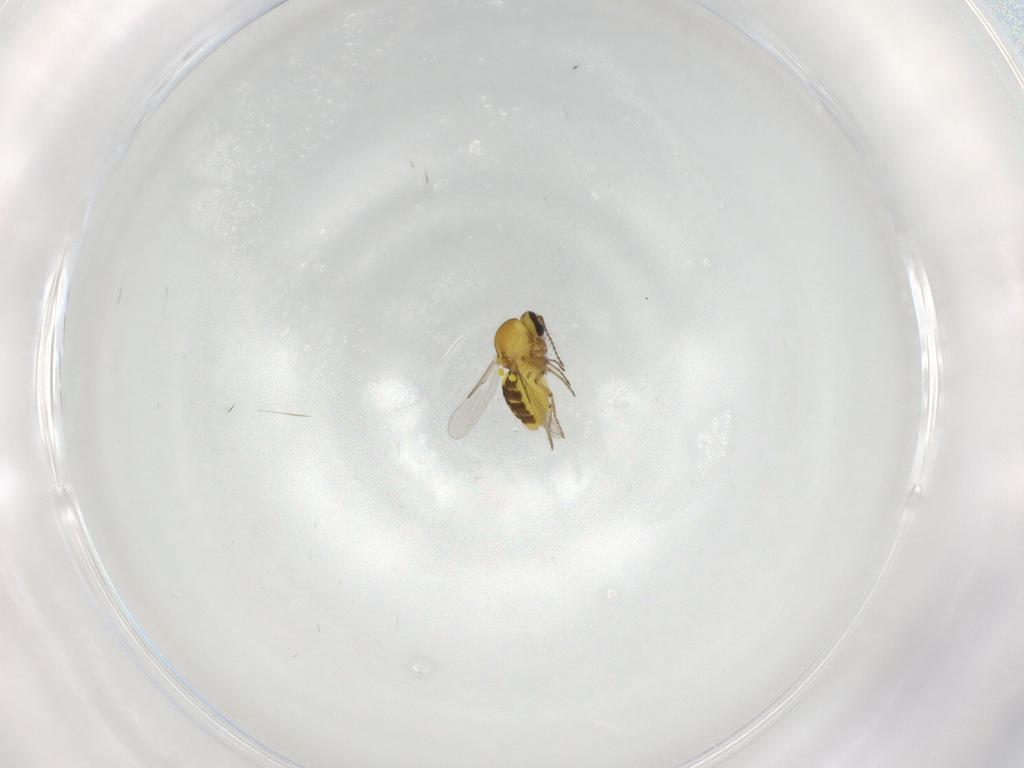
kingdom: Animalia
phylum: Arthropoda
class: Insecta
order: Diptera
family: Ceratopogonidae
